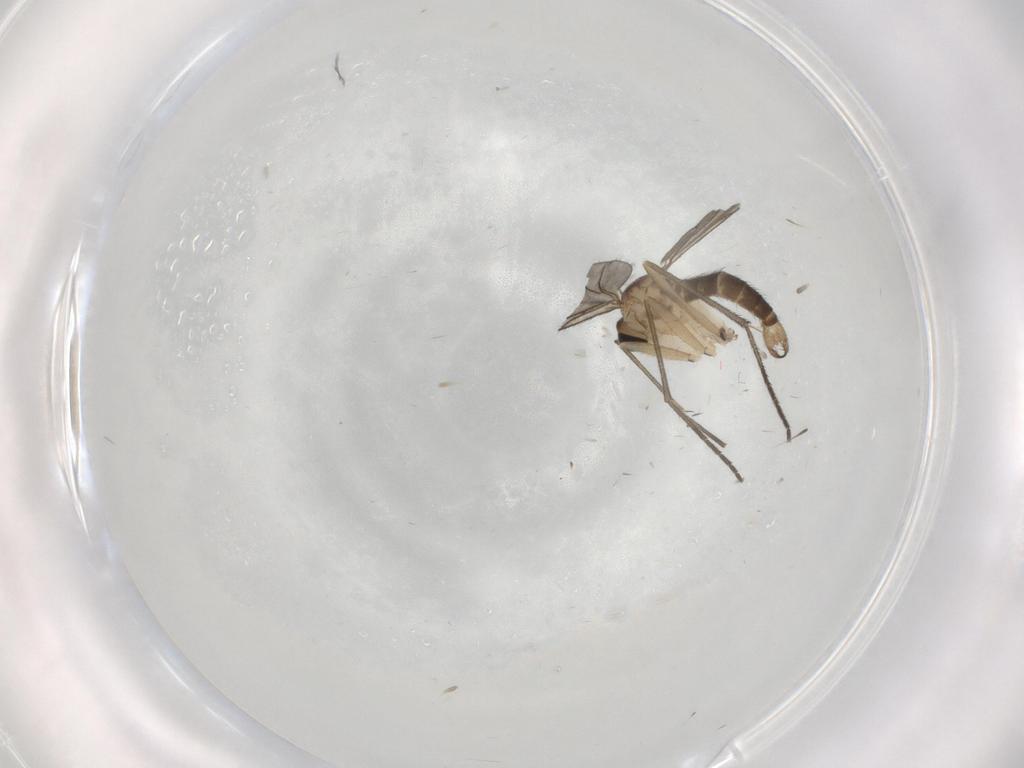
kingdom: Animalia
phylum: Arthropoda
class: Insecta
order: Diptera
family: Sciaridae
